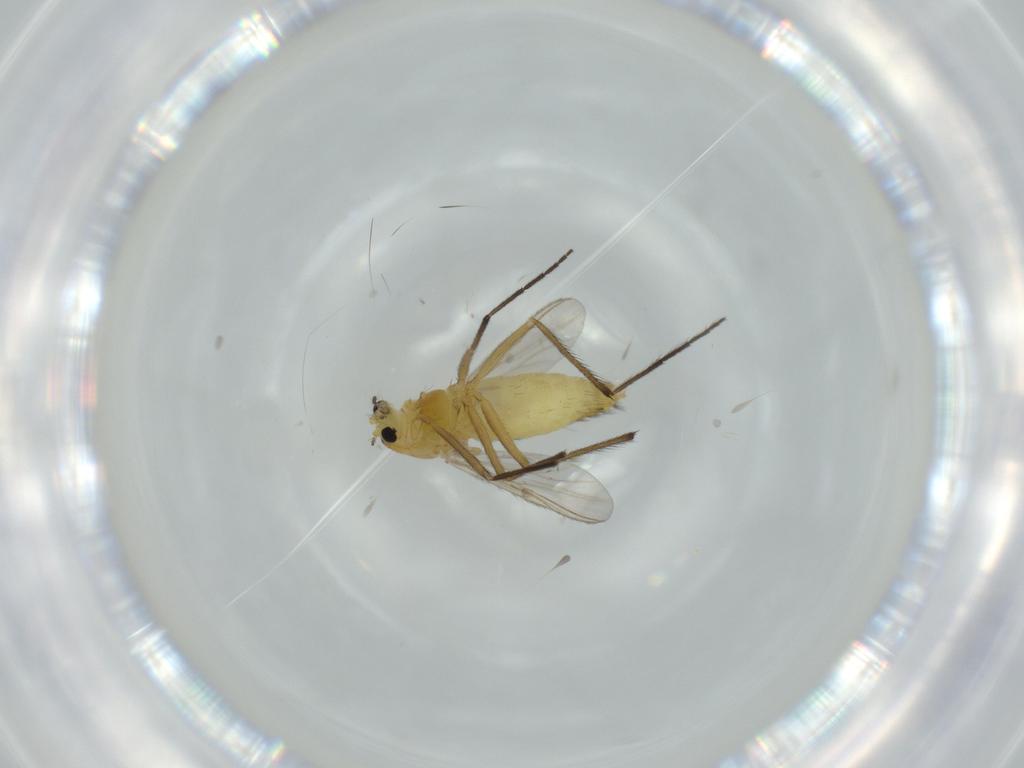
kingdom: Animalia
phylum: Arthropoda
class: Insecta
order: Diptera
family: Chironomidae
